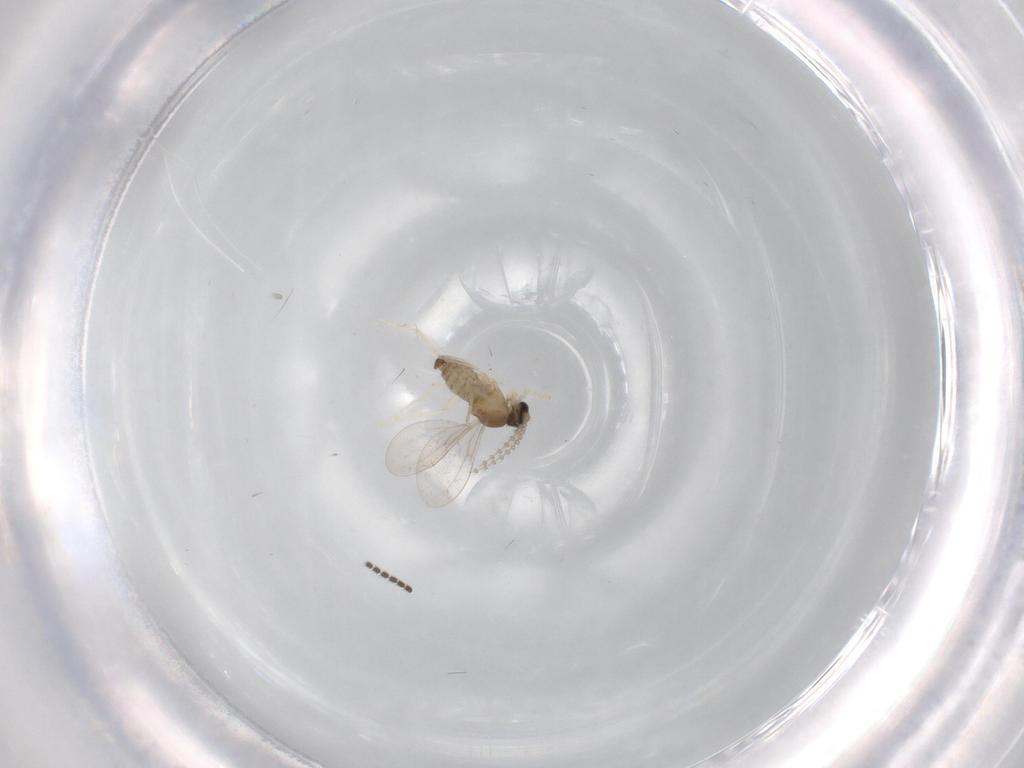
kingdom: Animalia
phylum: Arthropoda
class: Insecta
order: Diptera
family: Cecidomyiidae
